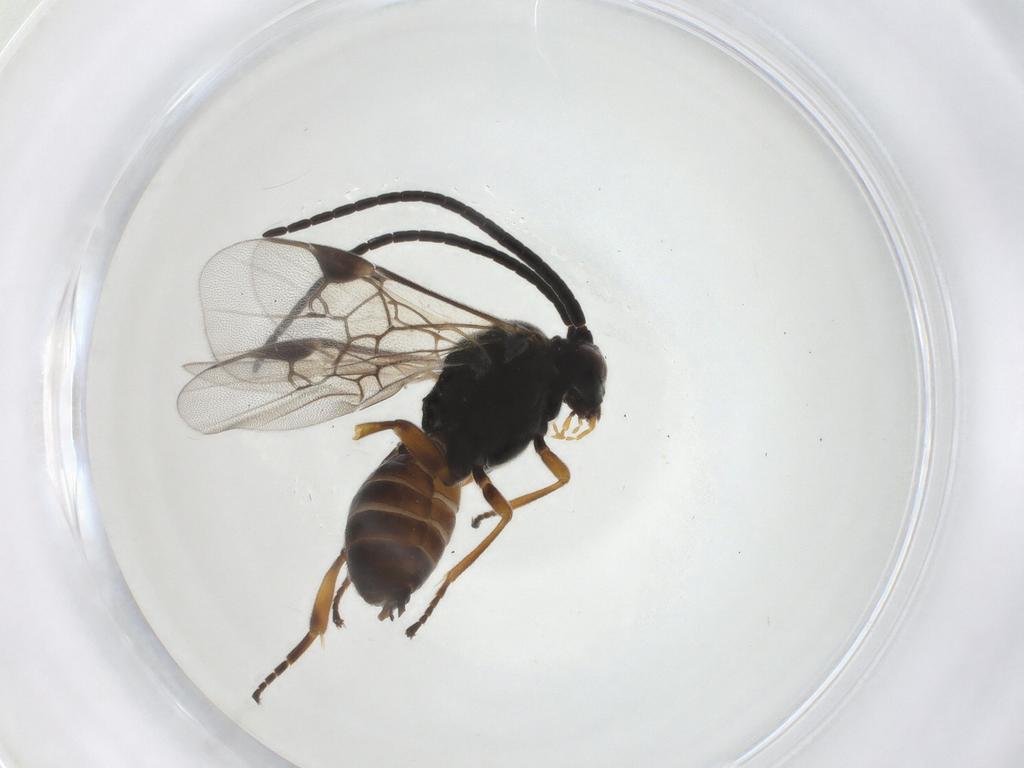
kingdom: Animalia
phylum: Arthropoda
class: Insecta
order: Hymenoptera
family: Braconidae
